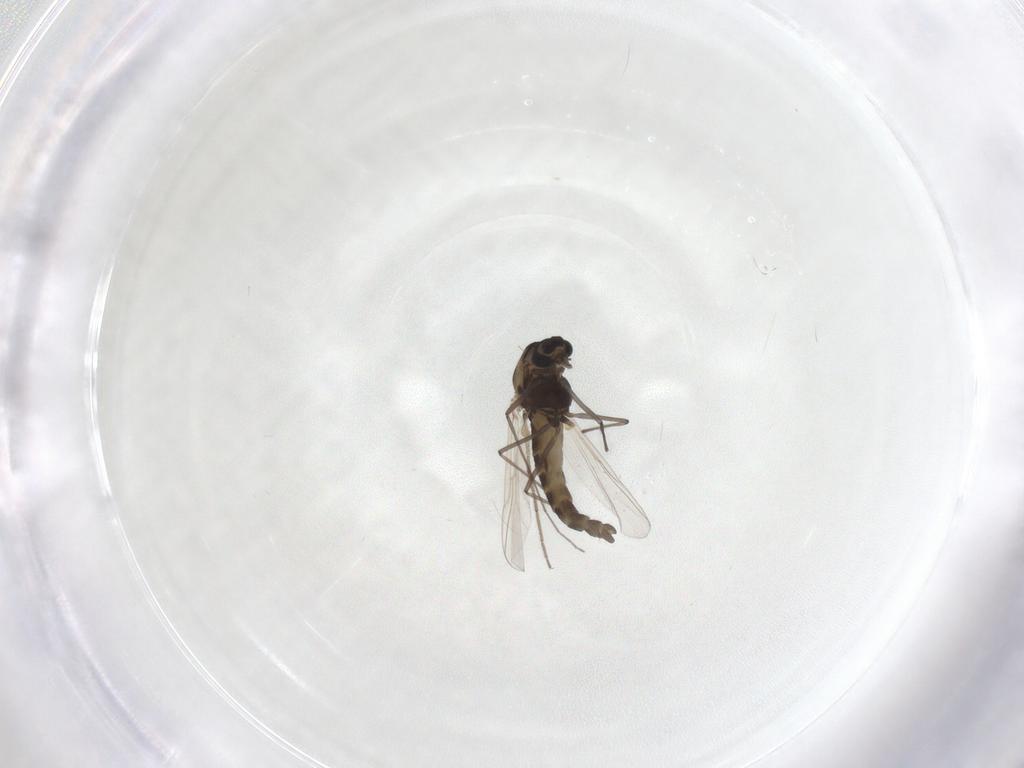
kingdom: Animalia
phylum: Arthropoda
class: Insecta
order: Diptera
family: Chironomidae
